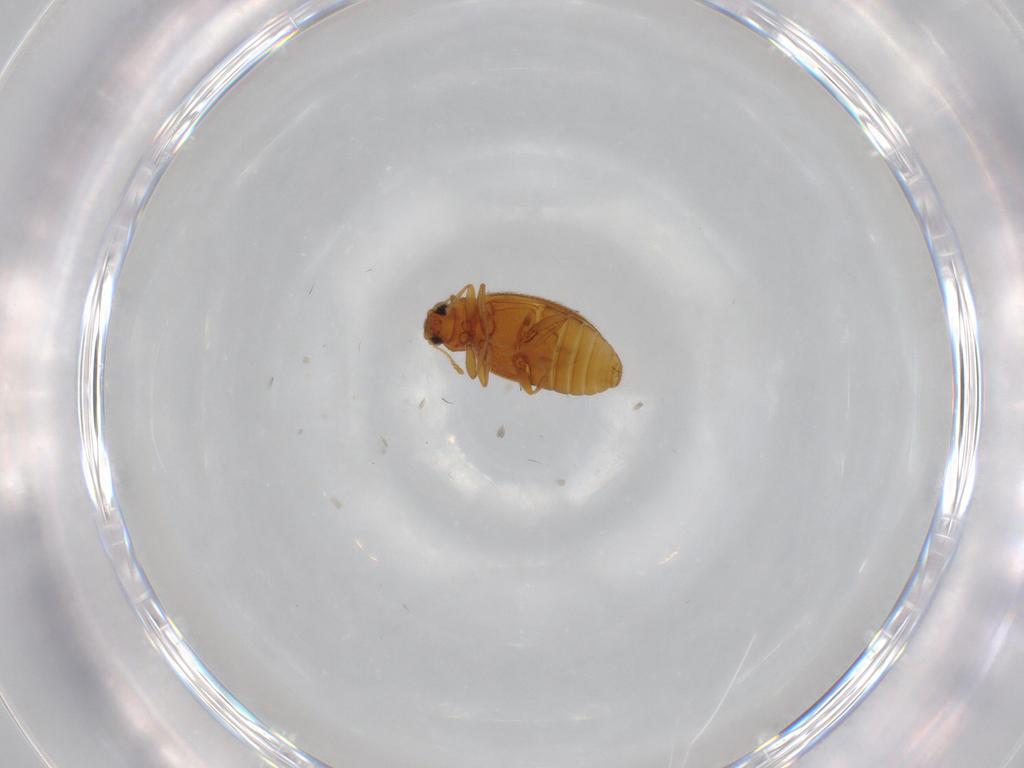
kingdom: Animalia
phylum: Arthropoda
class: Insecta
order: Coleoptera
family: Latridiidae
